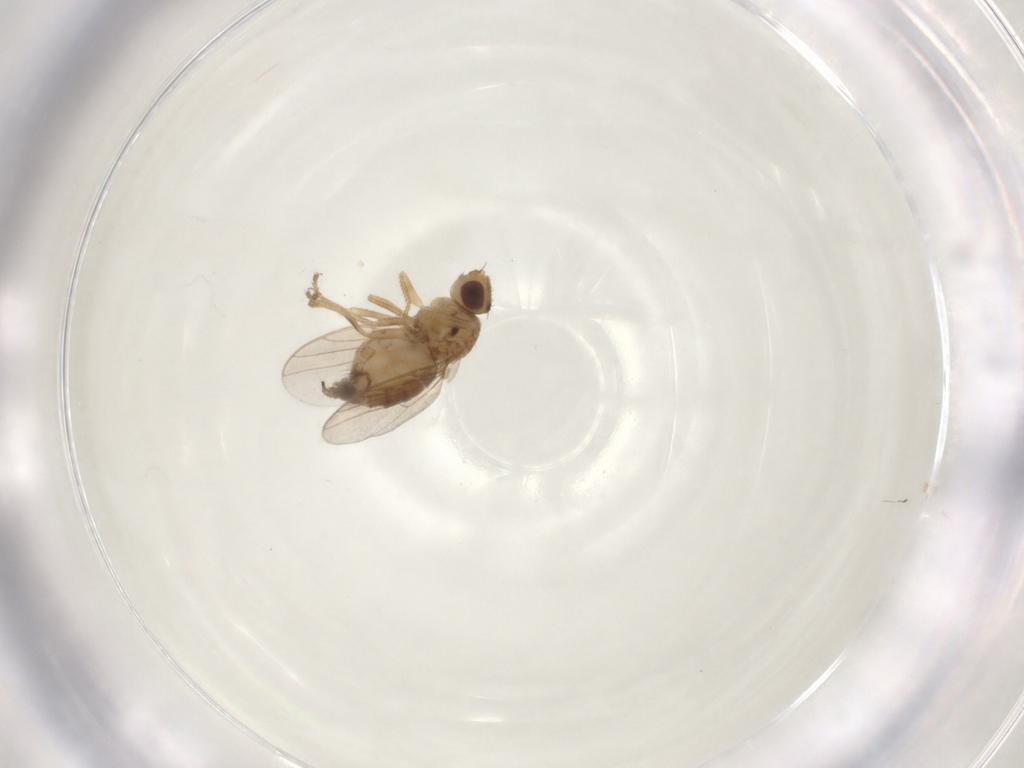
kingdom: Animalia
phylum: Arthropoda
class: Insecta
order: Diptera
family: Chloropidae
